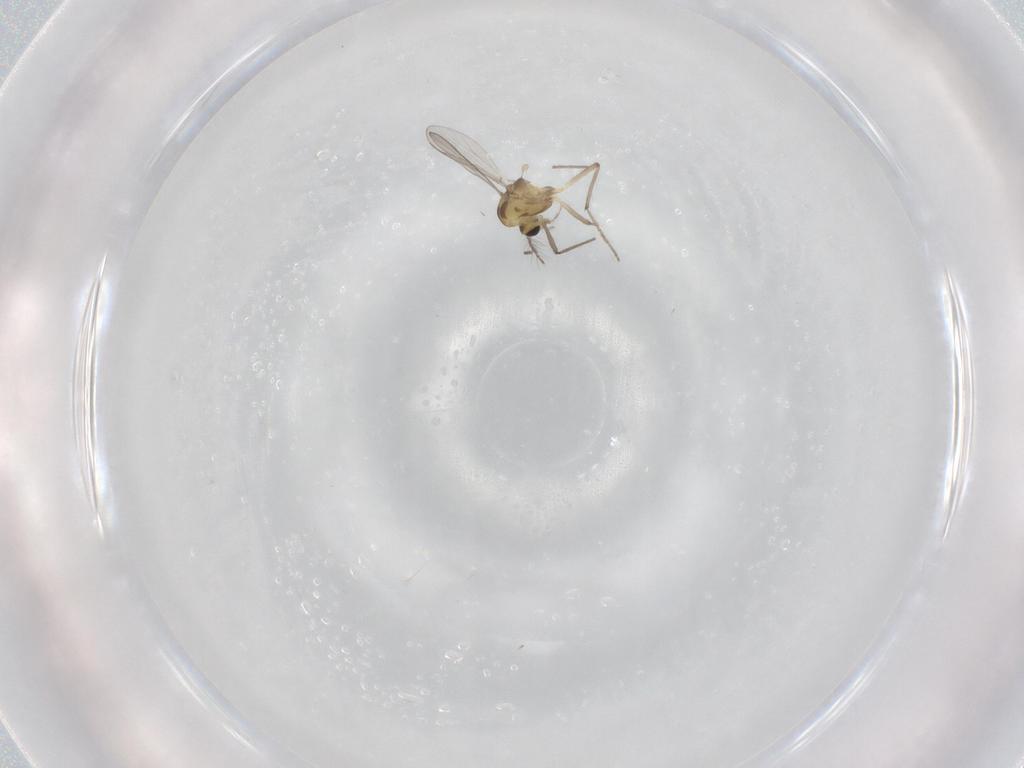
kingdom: Animalia
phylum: Arthropoda
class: Insecta
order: Diptera
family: Chironomidae
